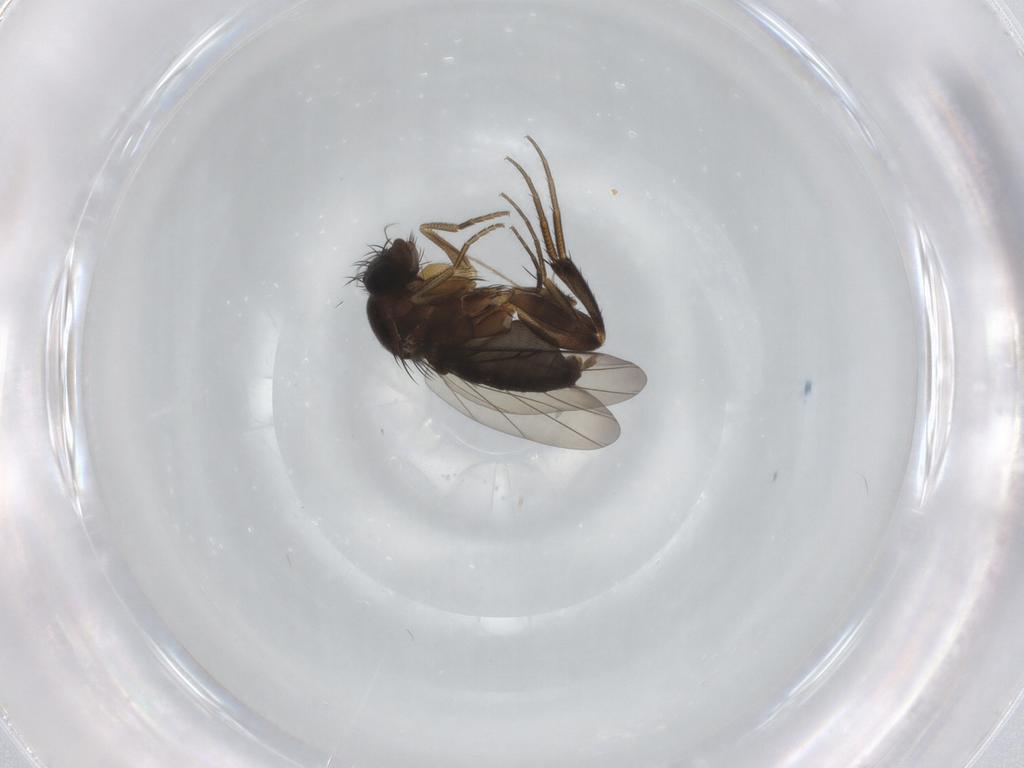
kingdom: Animalia
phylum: Arthropoda
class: Insecta
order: Diptera
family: Phoridae
